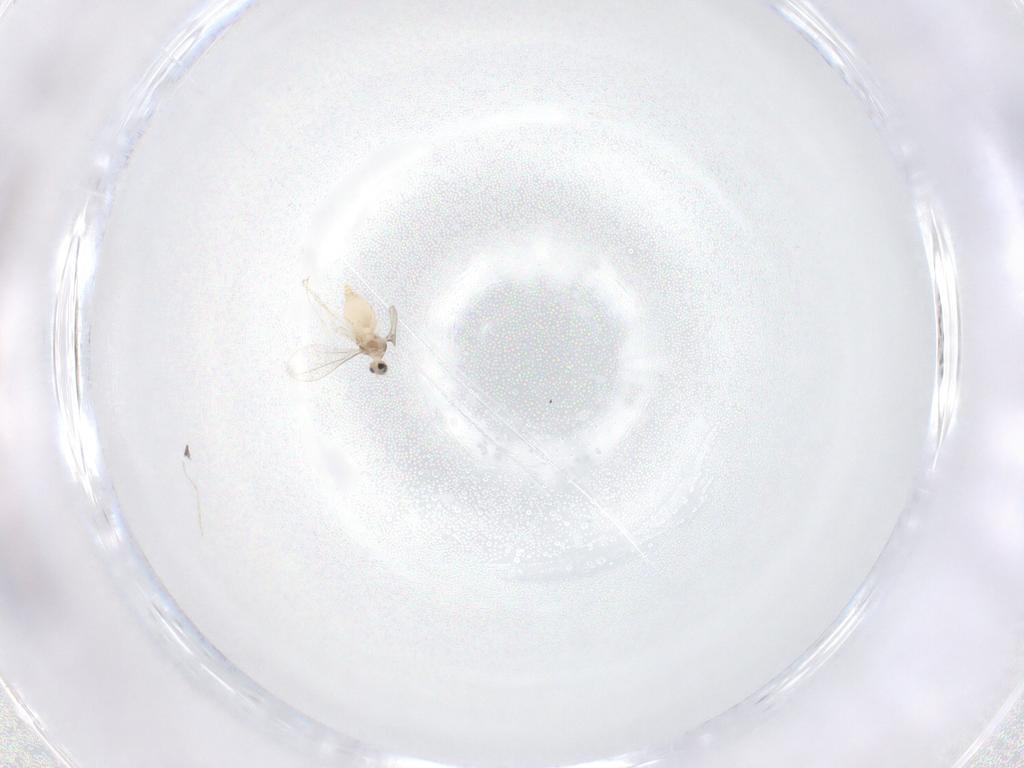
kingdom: Animalia
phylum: Arthropoda
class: Insecta
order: Diptera
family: Cecidomyiidae
